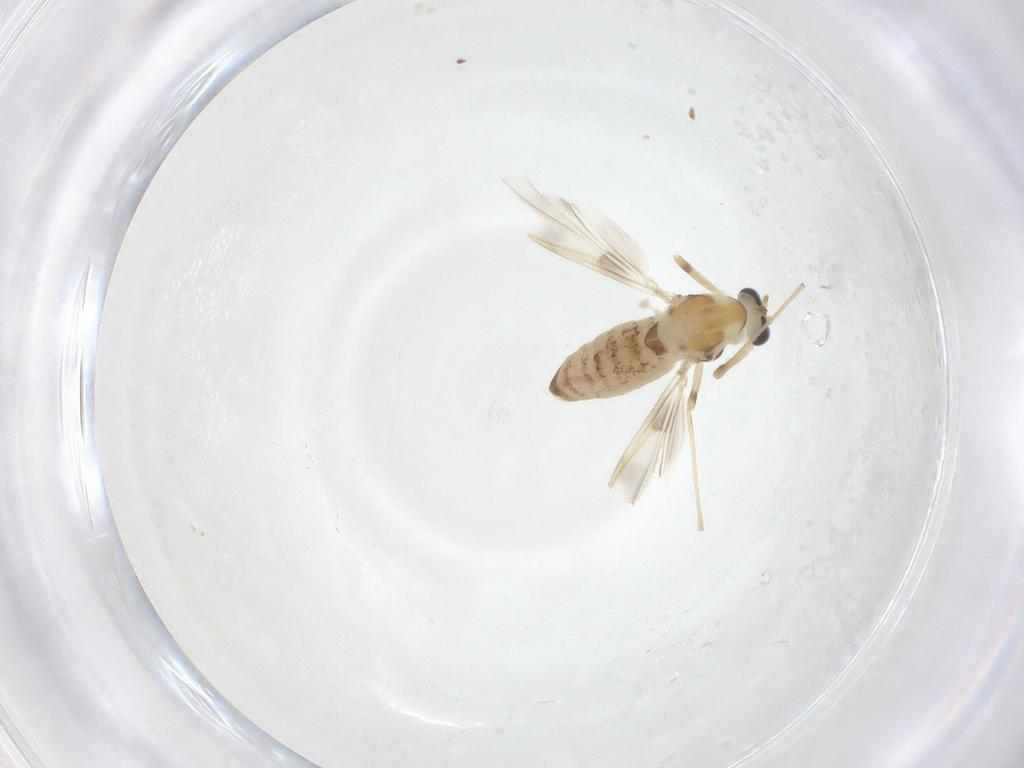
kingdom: Animalia
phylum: Arthropoda
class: Insecta
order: Diptera
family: Chironomidae
